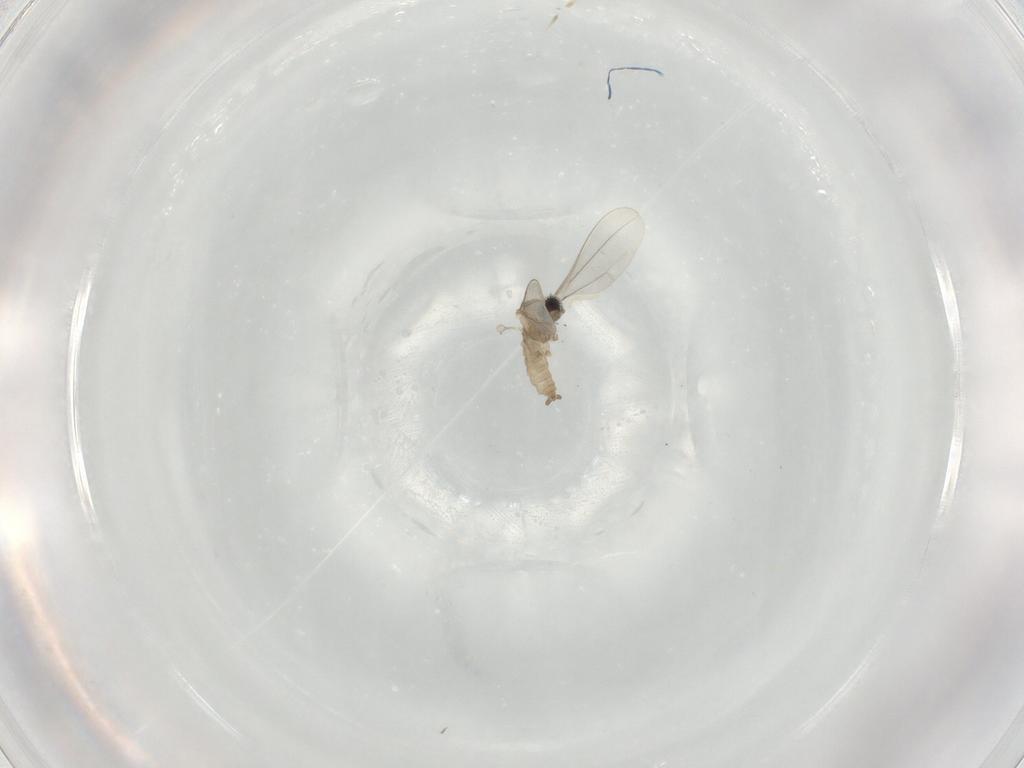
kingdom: Animalia
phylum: Arthropoda
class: Insecta
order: Diptera
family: Cecidomyiidae
